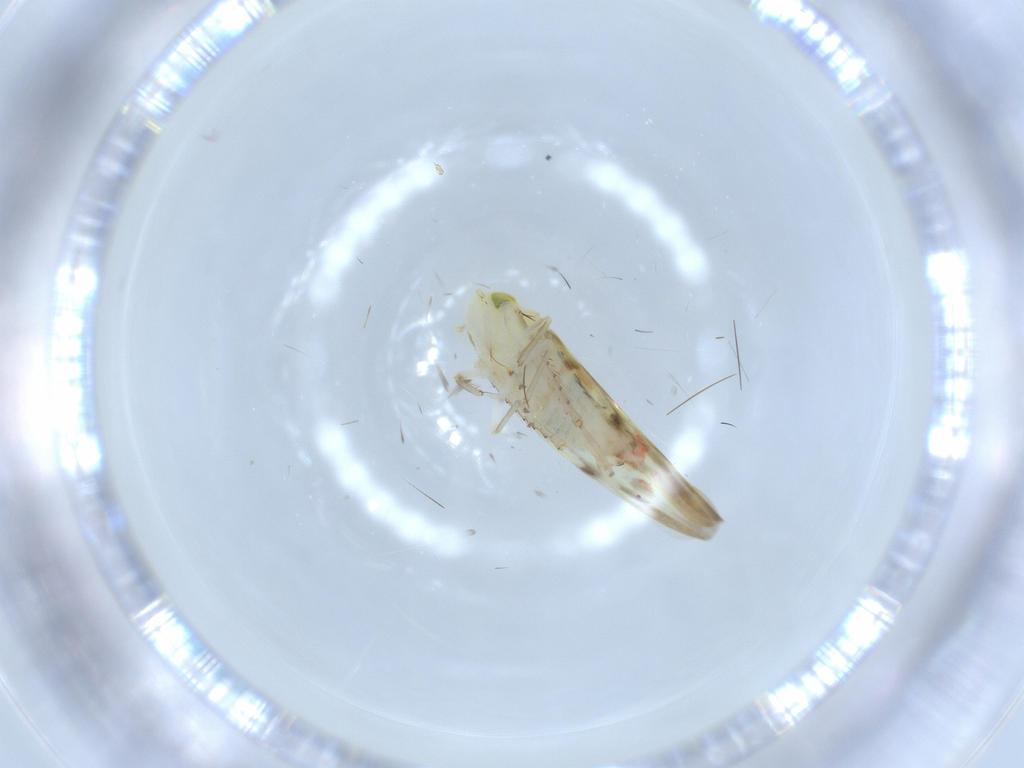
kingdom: Animalia
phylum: Arthropoda
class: Insecta
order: Hemiptera
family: Cicadellidae
